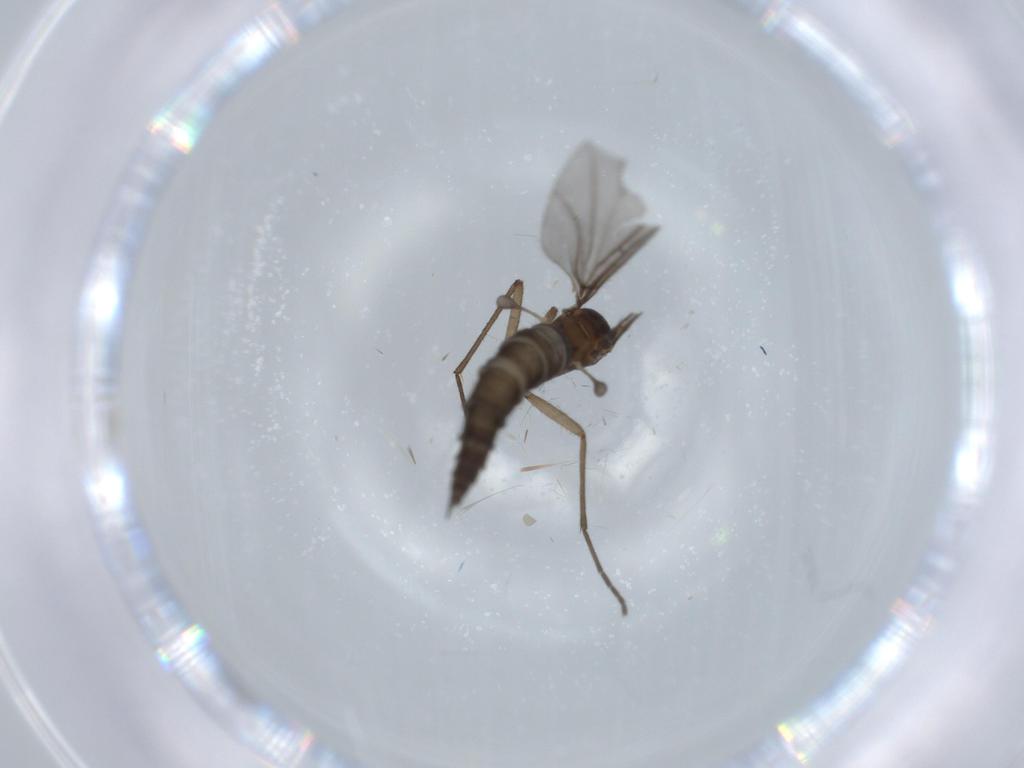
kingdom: Animalia
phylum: Arthropoda
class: Insecta
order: Diptera
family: Sciaridae
